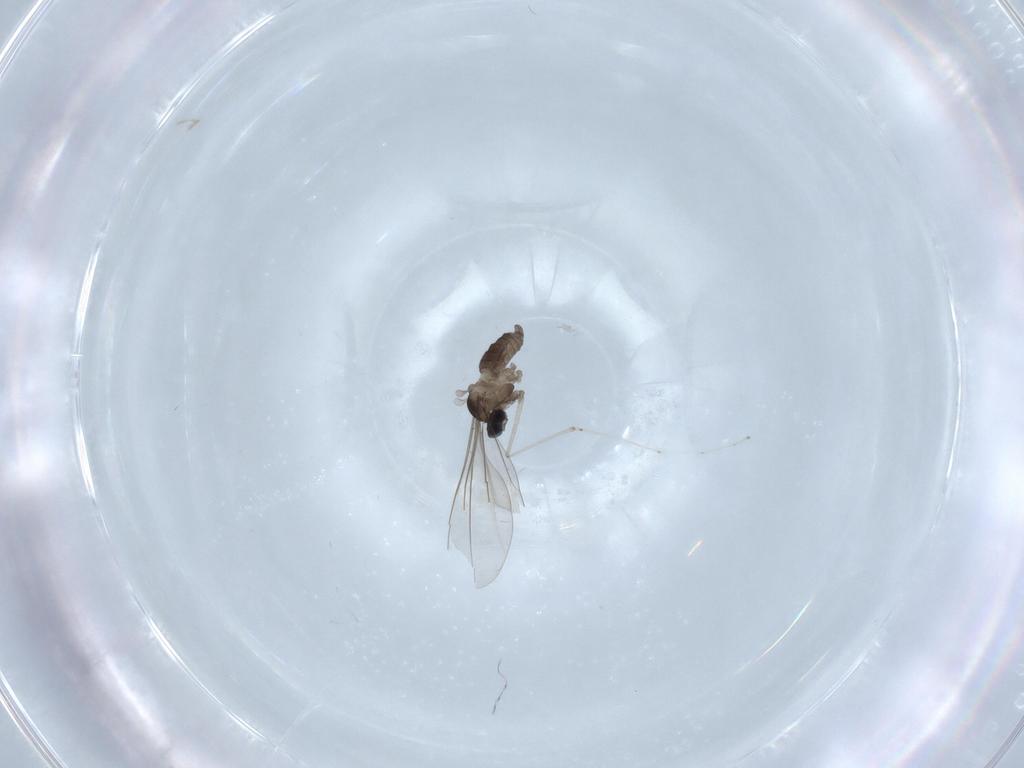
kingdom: Animalia
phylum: Arthropoda
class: Insecta
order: Diptera
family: Cecidomyiidae
